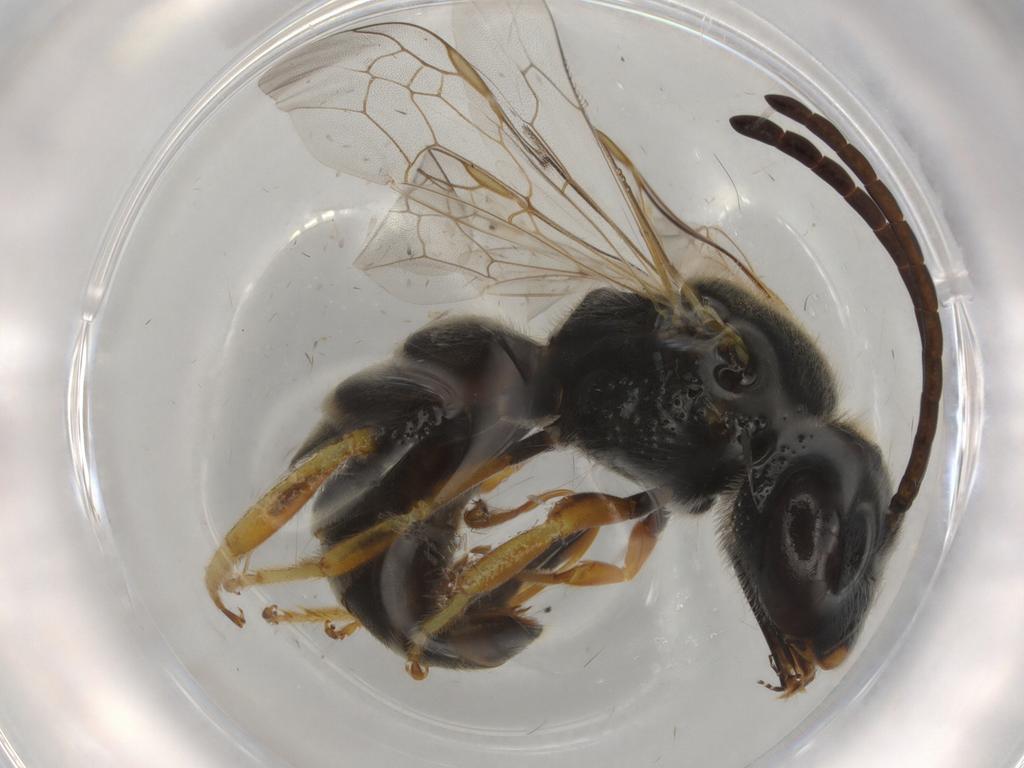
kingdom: Animalia
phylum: Arthropoda
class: Insecta
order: Hymenoptera
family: Halictidae
